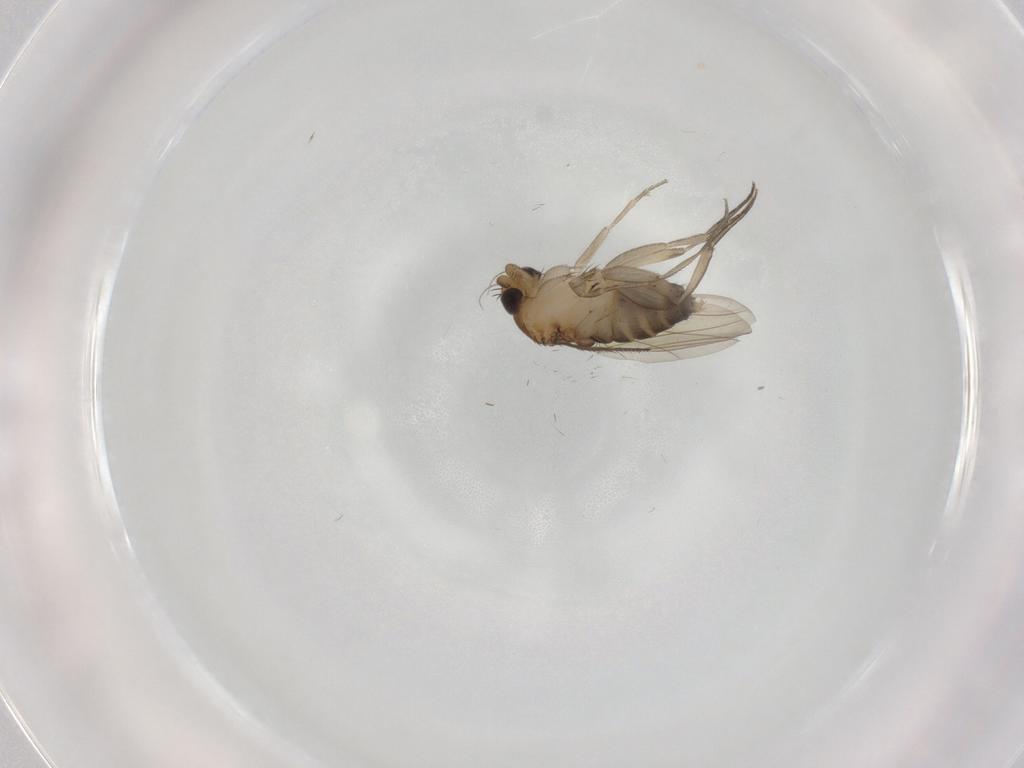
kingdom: Animalia
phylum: Arthropoda
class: Insecta
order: Diptera
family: Phoridae
